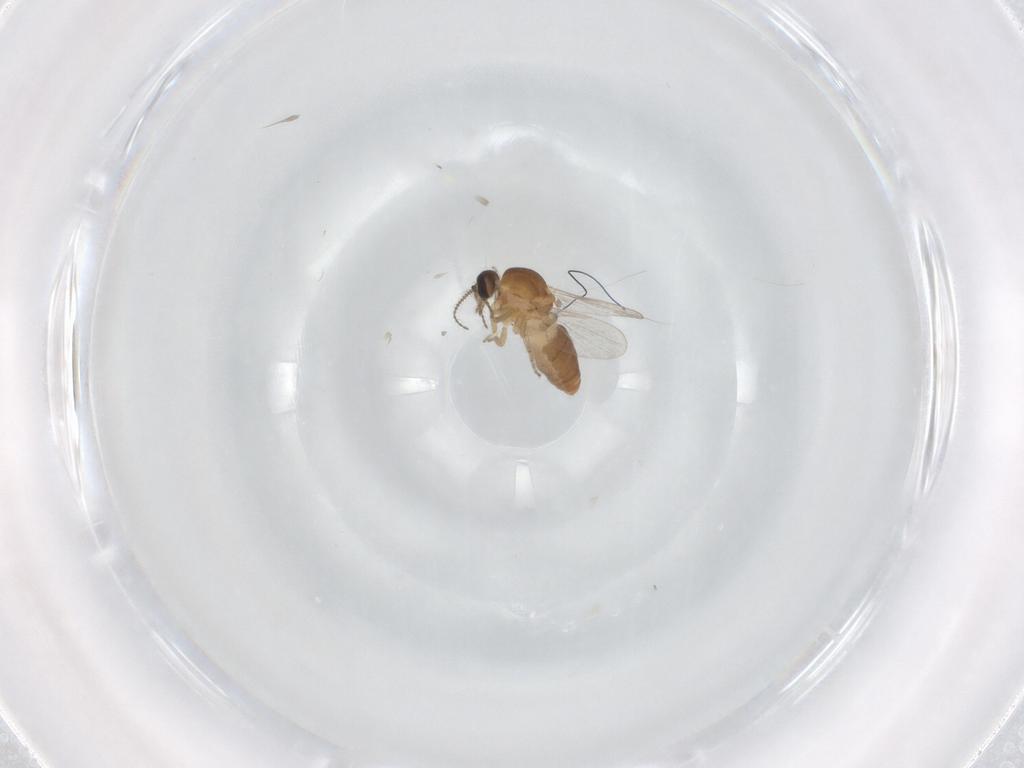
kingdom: Animalia
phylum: Arthropoda
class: Insecta
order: Diptera
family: Ceratopogonidae
